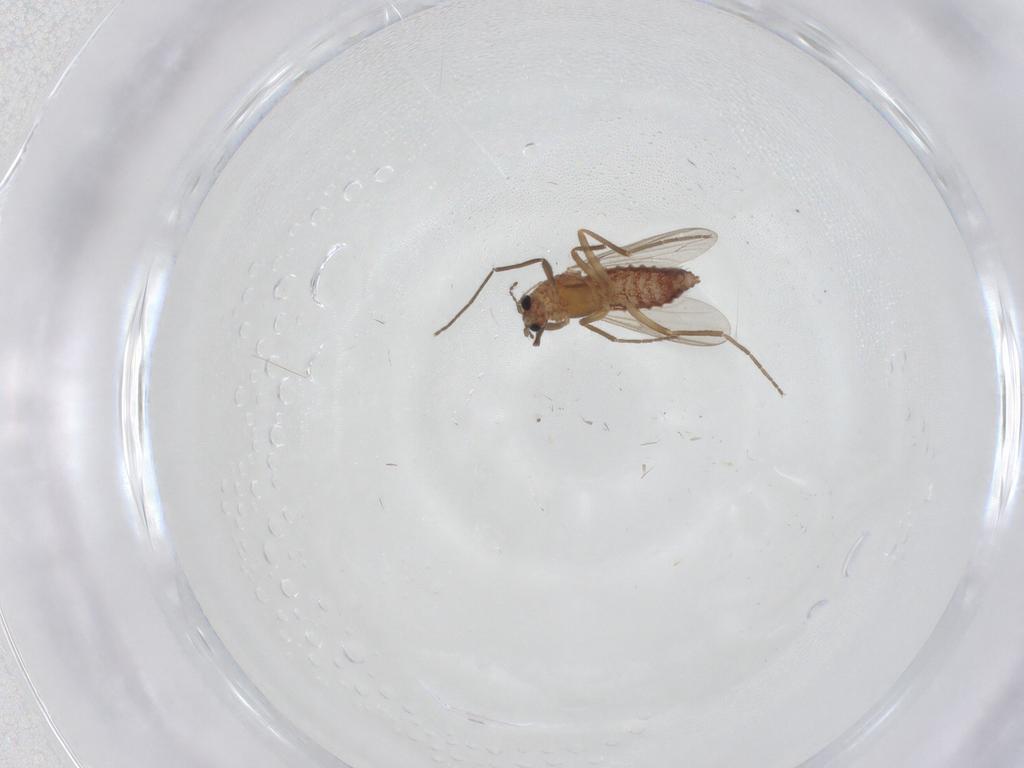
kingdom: Animalia
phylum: Arthropoda
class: Insecta
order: Diptera
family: Chironomidae
